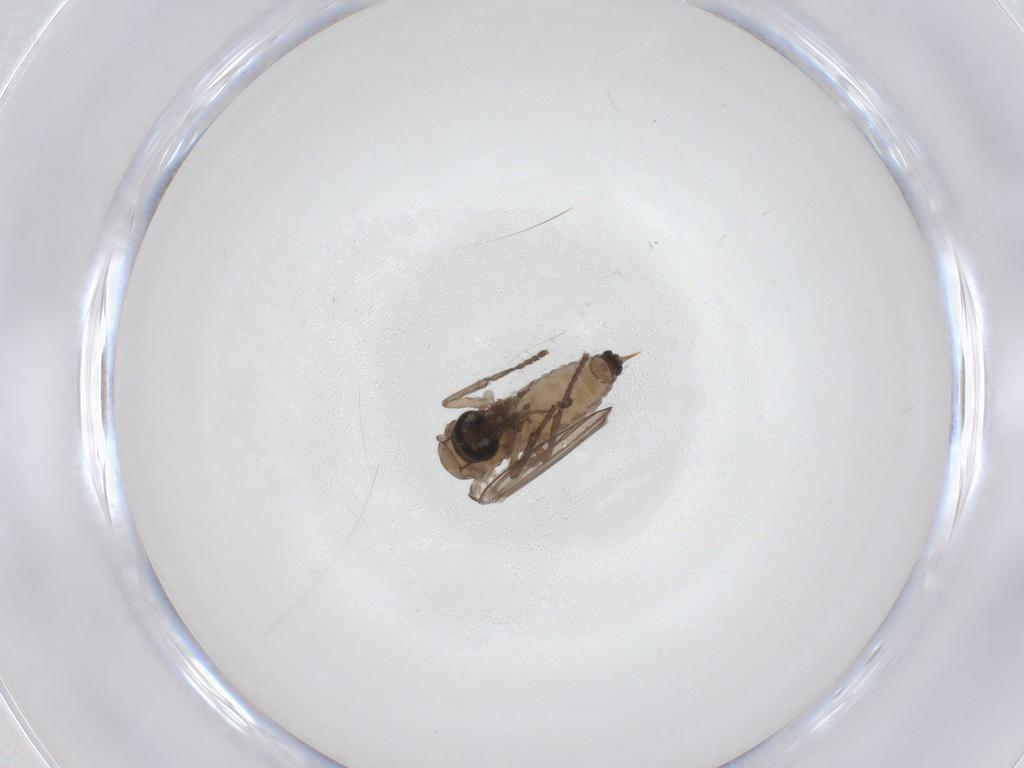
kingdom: Animalia
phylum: Arthropoda
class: Insecta
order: Diptera
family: Psychodidae
